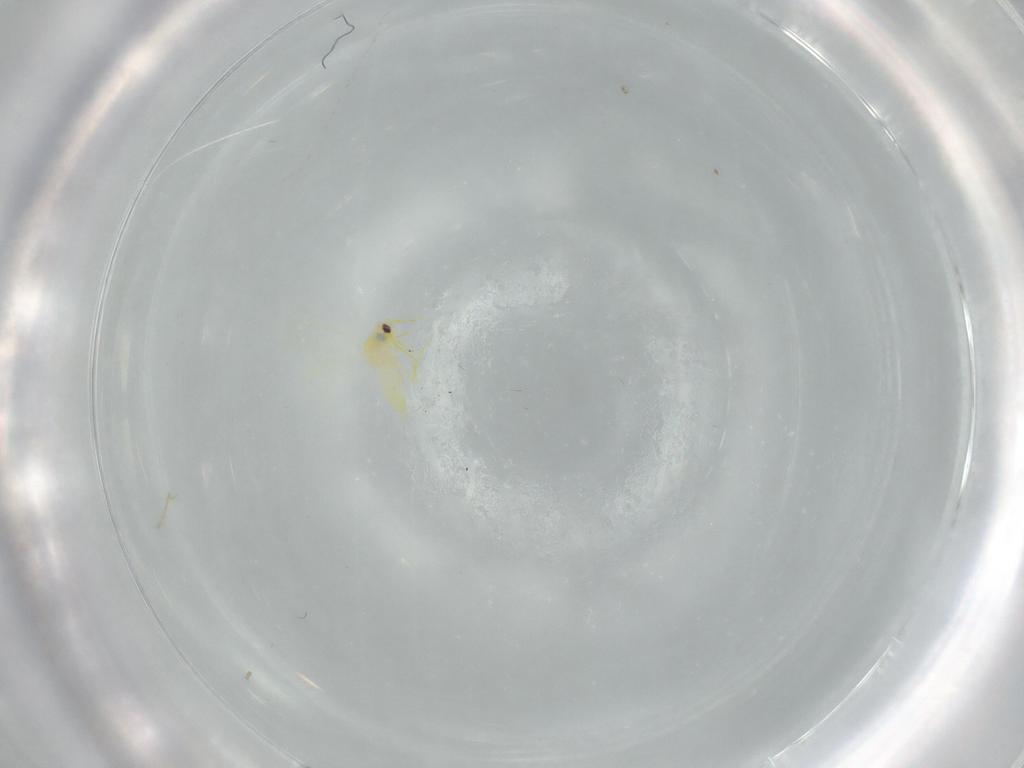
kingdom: Animalia
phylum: Arthropoda
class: Insecta
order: Hemiptera
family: Aleyrodidae
